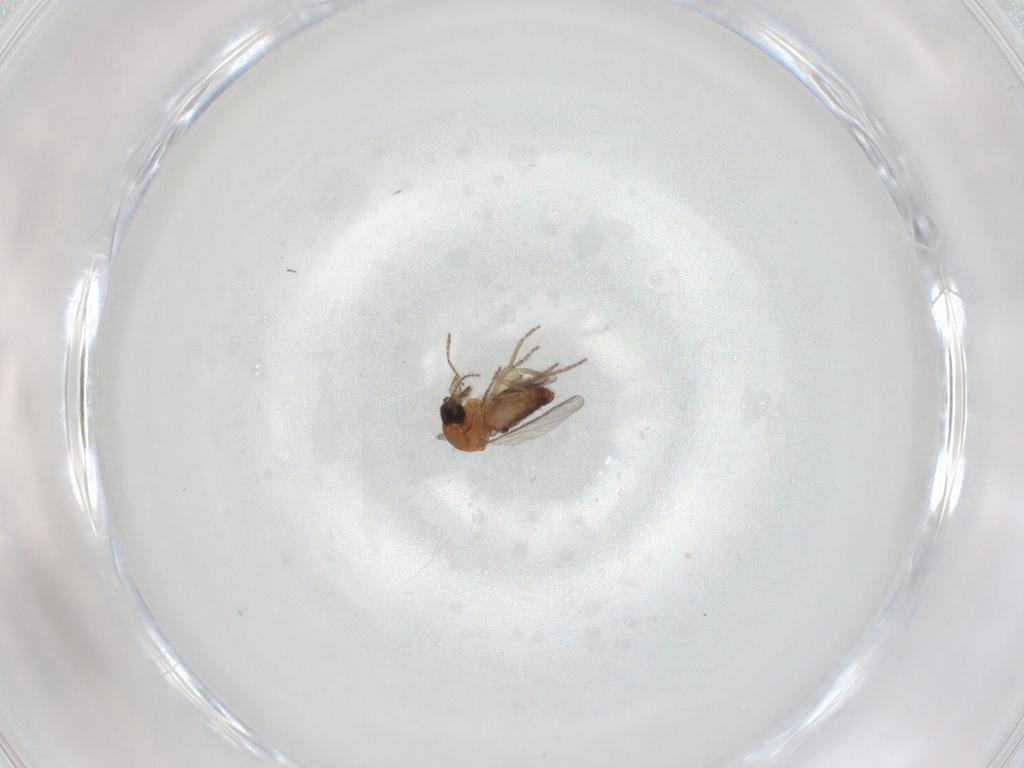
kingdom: Animalia
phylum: Arthropoda
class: Insecta
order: Diptera
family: Ceratopogonidae
